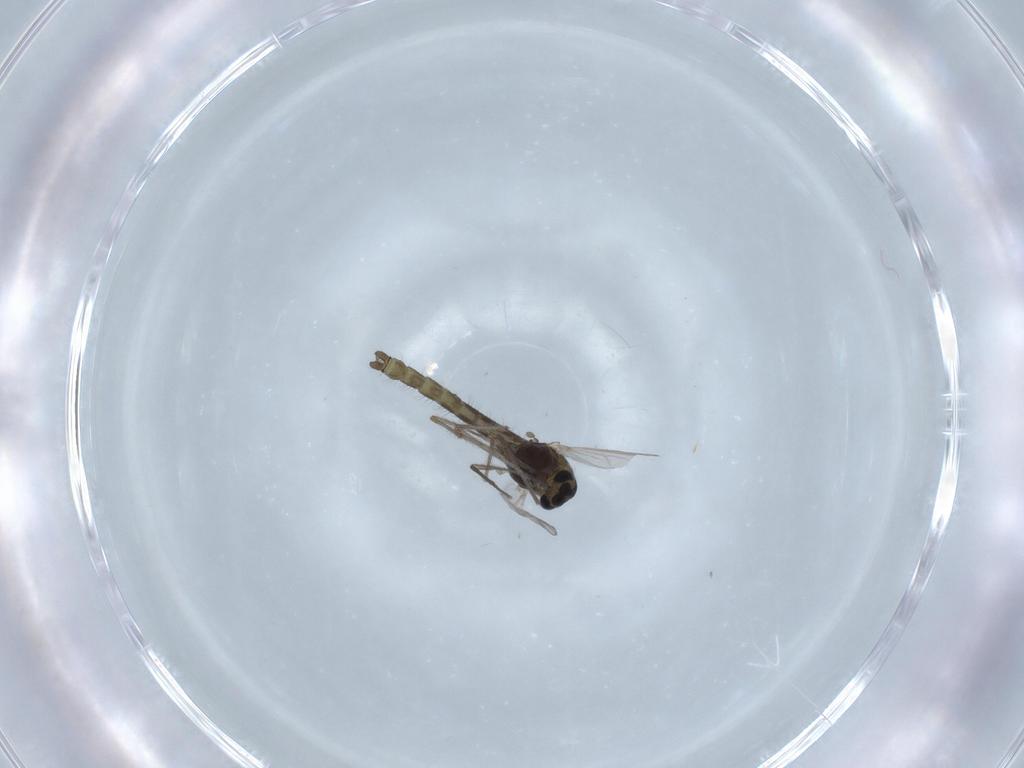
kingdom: Animalia
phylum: Arthropoda
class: Insecta
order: Diptera
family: Chironomidae
